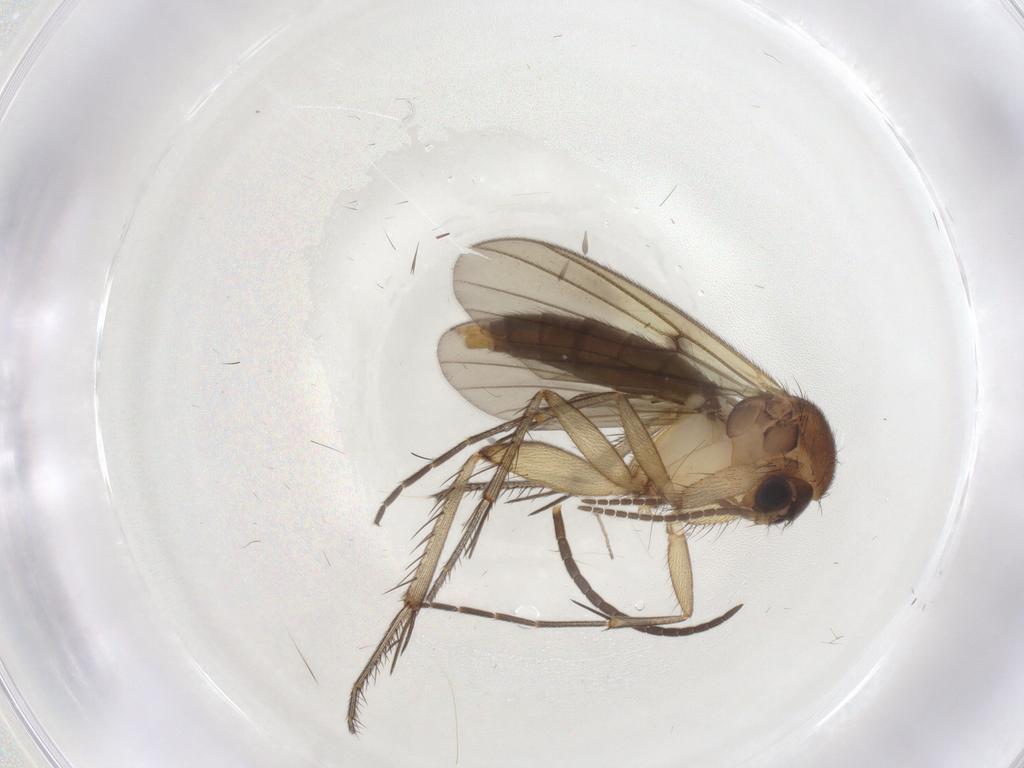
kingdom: Animalia
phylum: Arthropoda
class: Insecta
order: Diptera
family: Mycetophilidae
